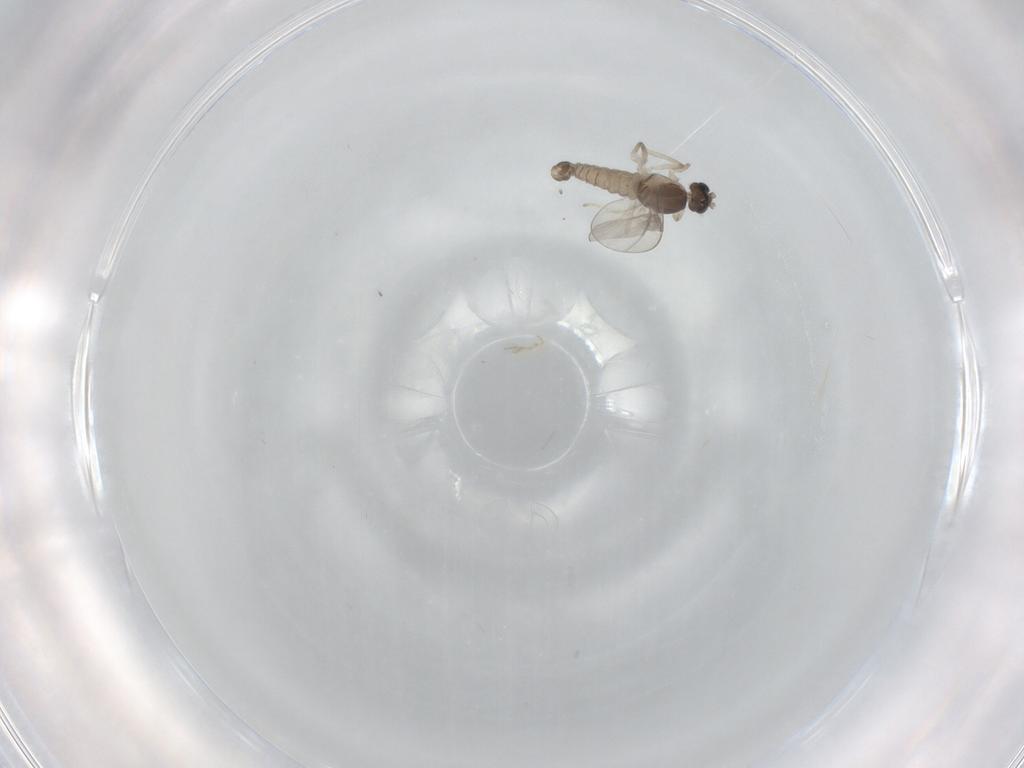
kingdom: Animalia
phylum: Arthropoda
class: Insecta
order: Diptera
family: Cecidomyiidae
